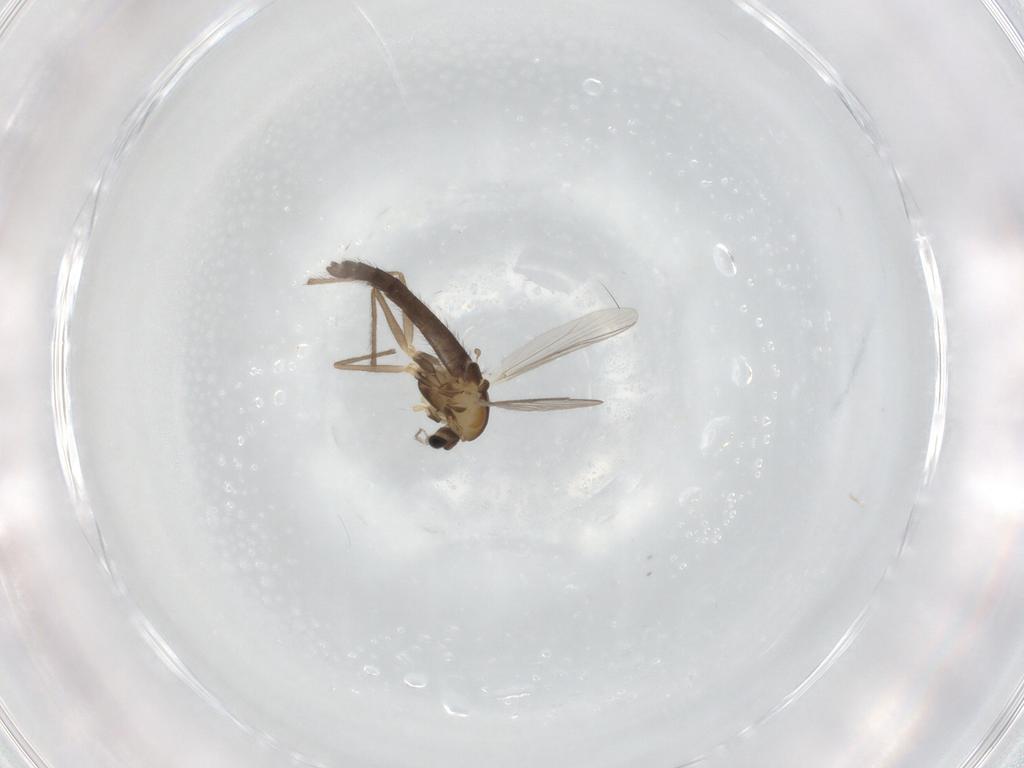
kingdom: Animalia
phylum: Arthropoda
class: Insecta
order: Diptera
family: Chironomidae
